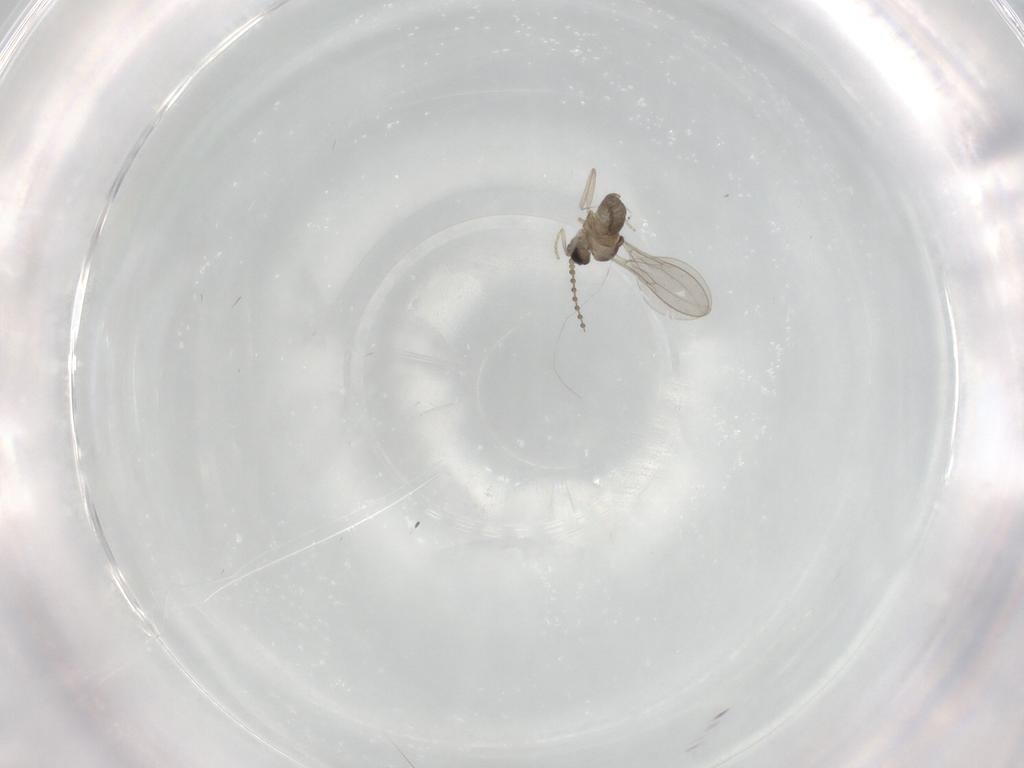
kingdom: Animalia
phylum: Arthropoda
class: Insecta
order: Diptera
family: Cecidomyiidae
